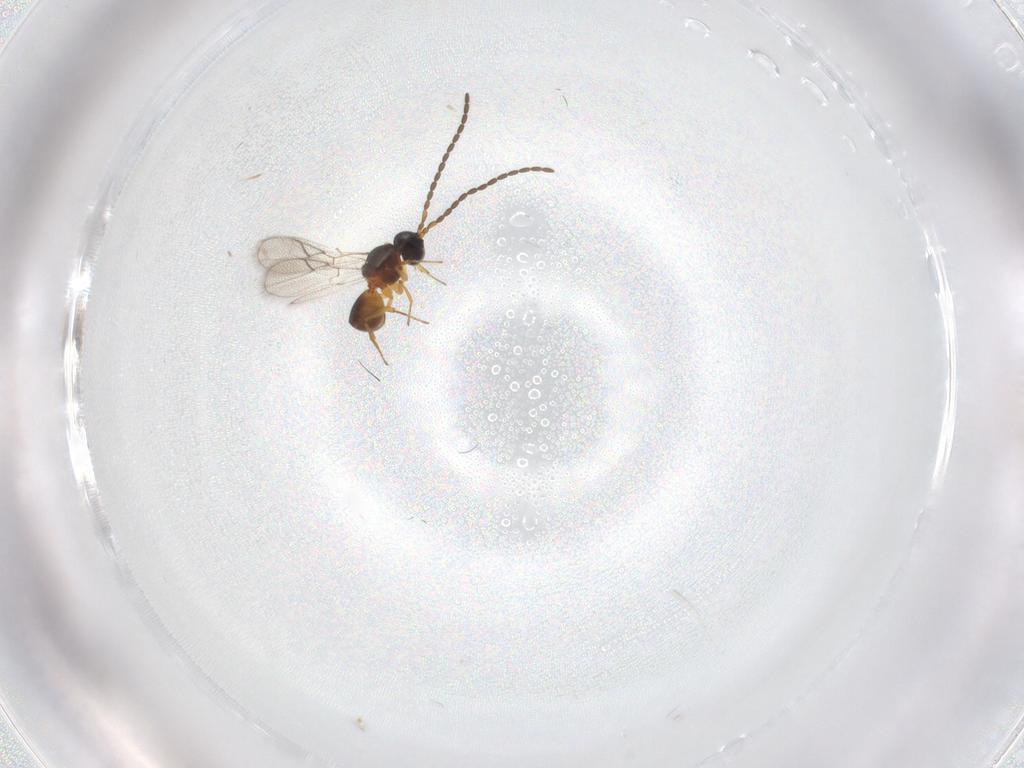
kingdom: Animalia
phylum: Arthropoda
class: Insecta
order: Hymenoptera
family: Figitidae
